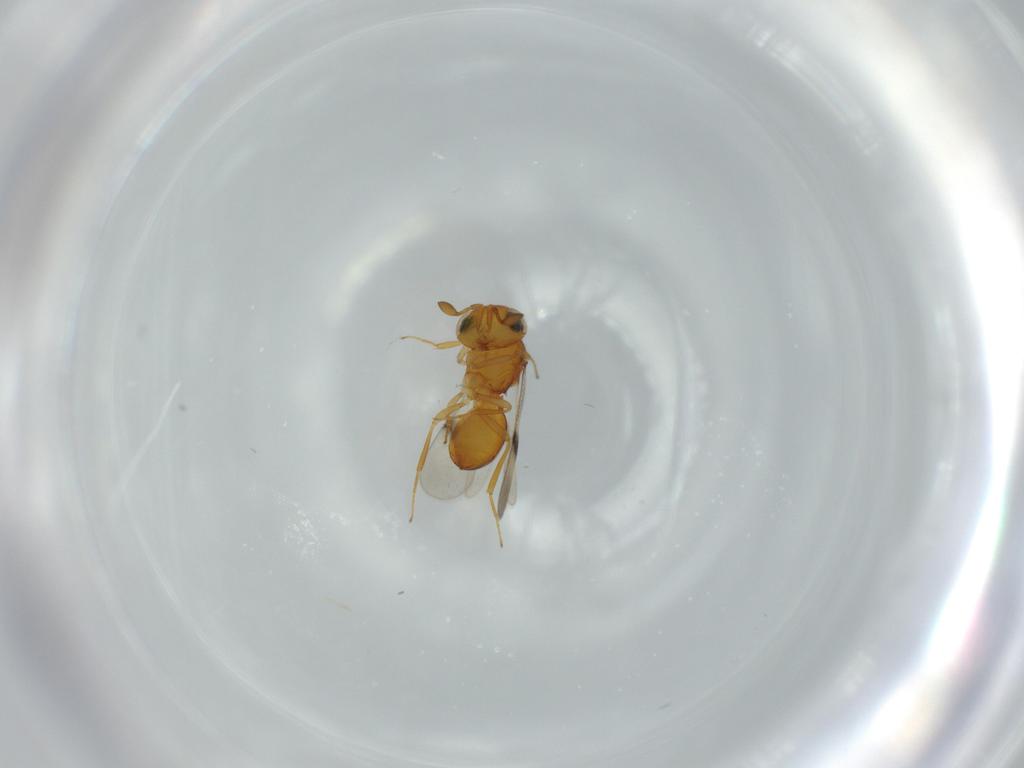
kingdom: Animalia
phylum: Arthropoda
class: Insecta
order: Hymenoptera
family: Scelionidae
